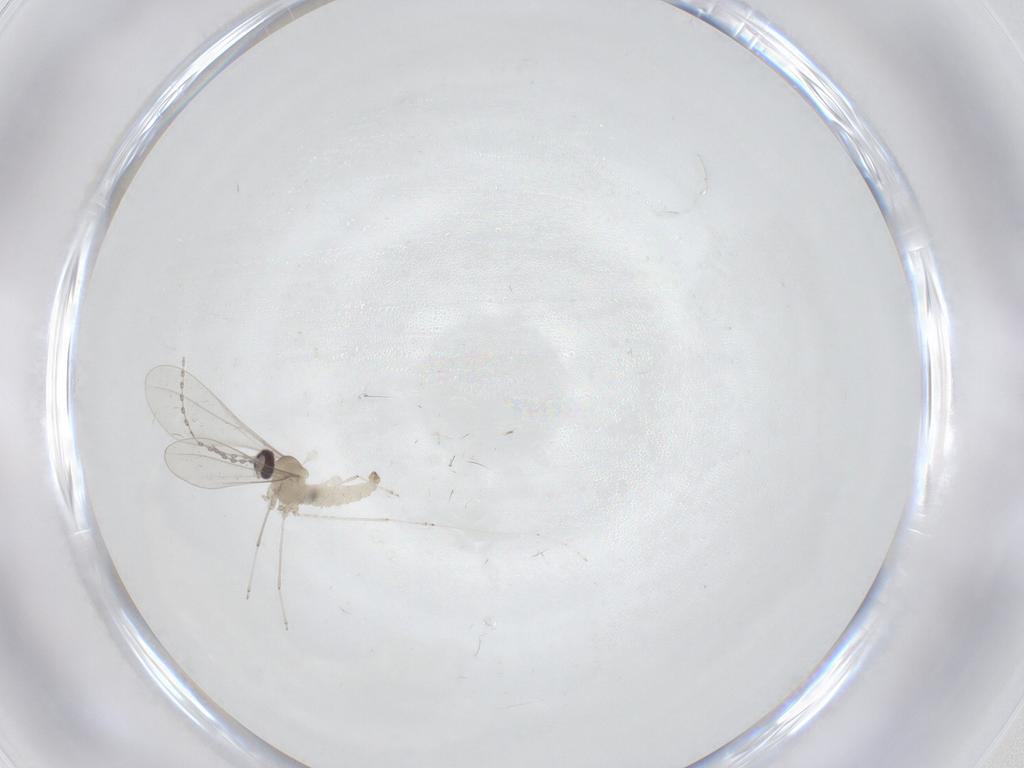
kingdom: Animalia
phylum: Arthropoda
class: Insecta
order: Diptera
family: Cecidomyiidae
